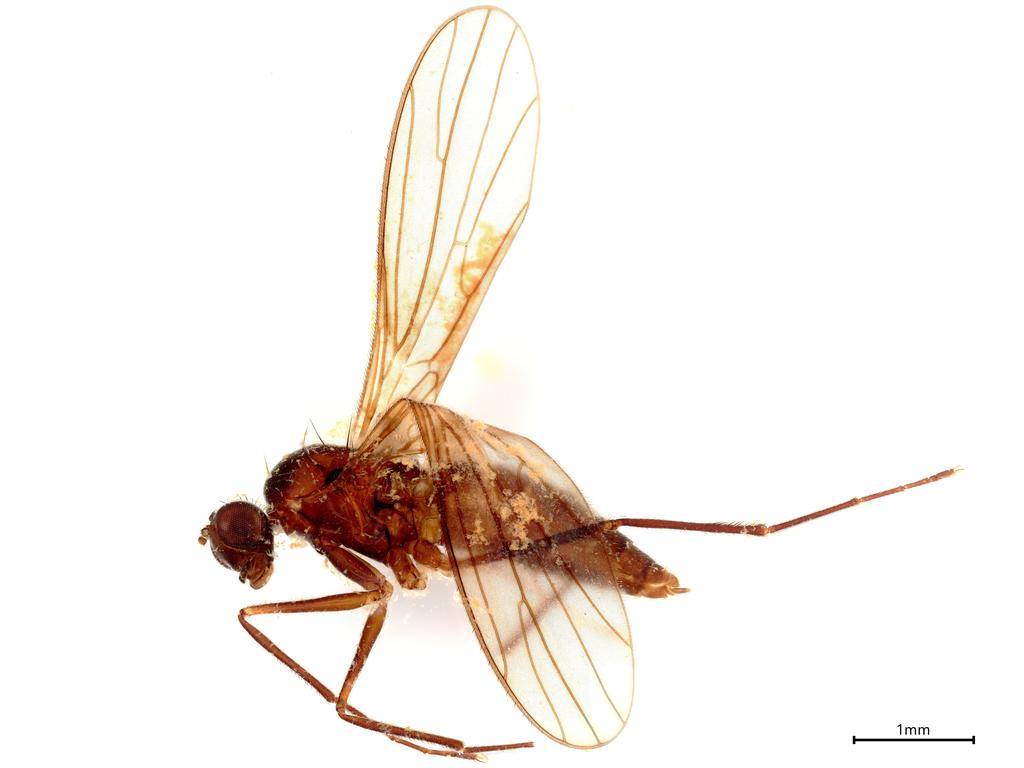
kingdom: Animalia
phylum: Arthropoda
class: Insecta
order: Diptera
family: Empididae
